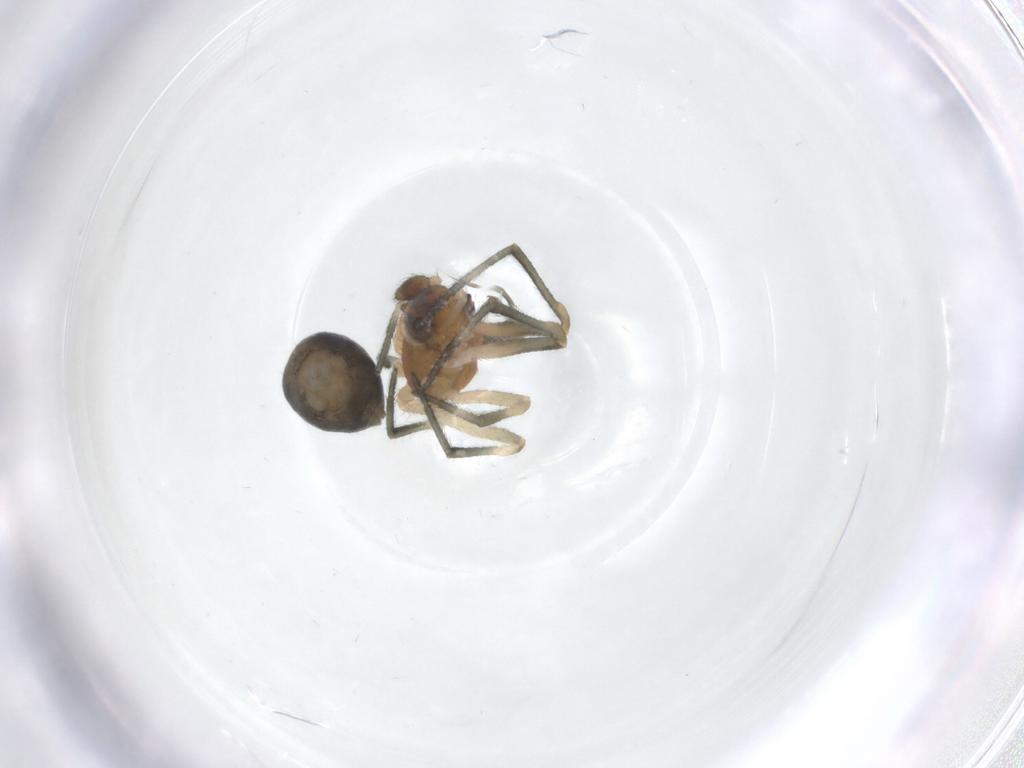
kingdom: Animalia
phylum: Arthropoda
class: Arachnida
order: Araneae
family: Theridiidae
